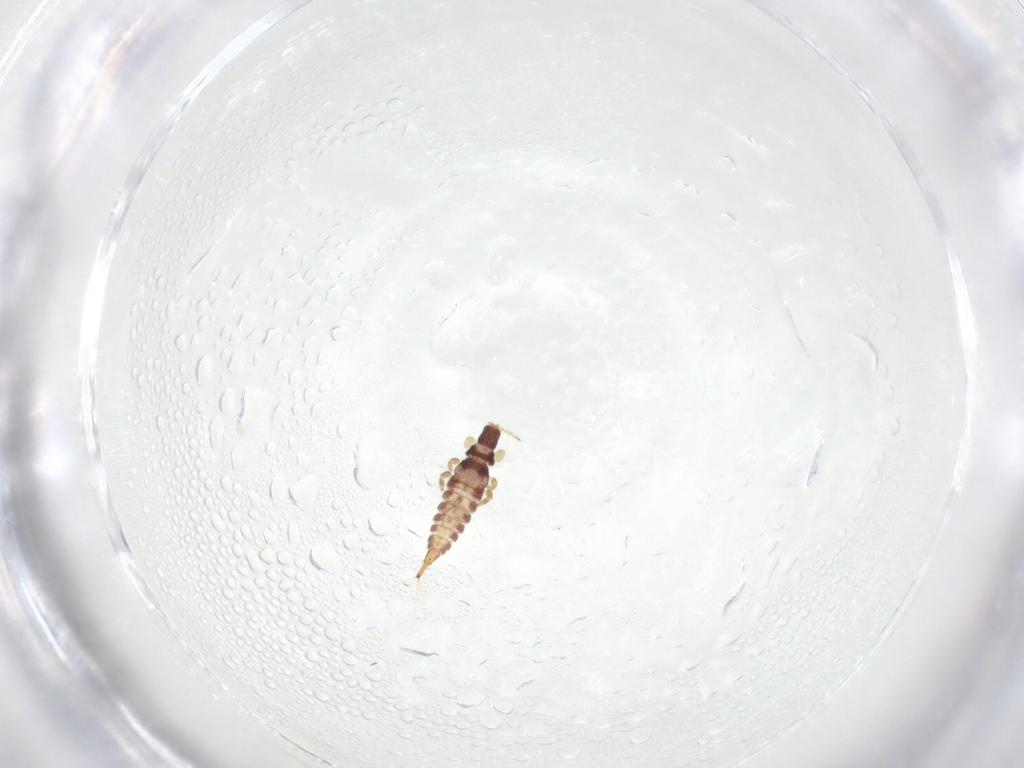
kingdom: Animalia
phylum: Arthropoda
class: Insecta
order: Thysanoptera
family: Phlaeothripidae
